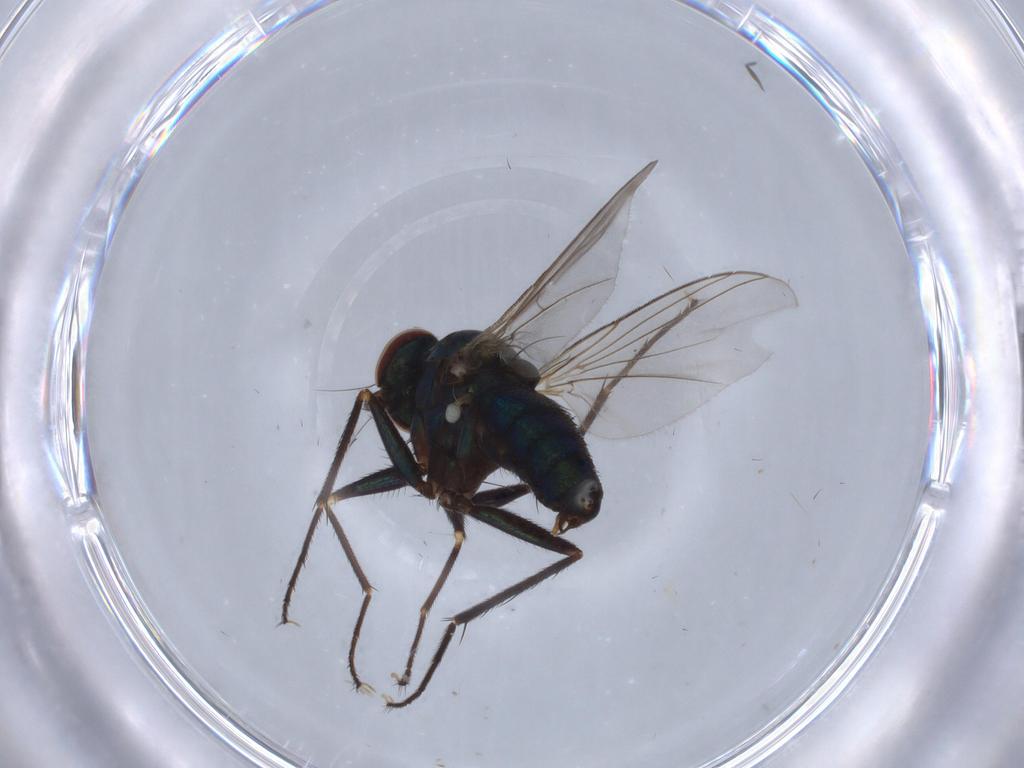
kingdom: Animalia
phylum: Arthropoda
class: Insecta
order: Diptera
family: Dolichopodidae
